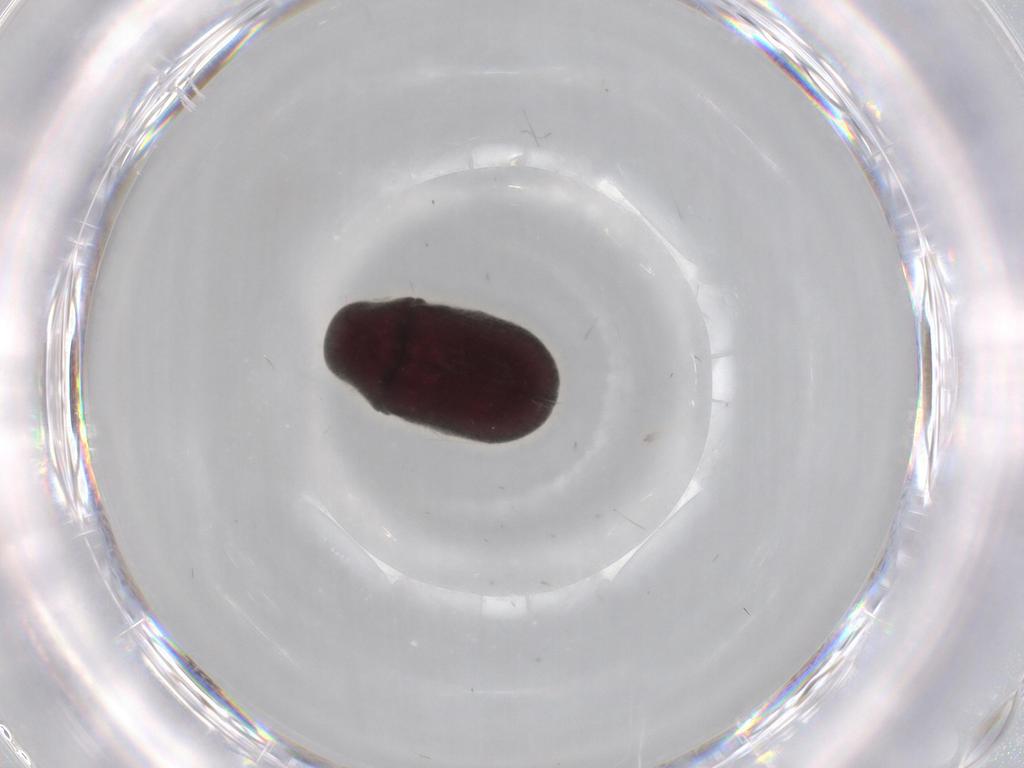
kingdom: Animalia
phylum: Arthropoda
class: Insecta
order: Coleoptera
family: Ptinidae
